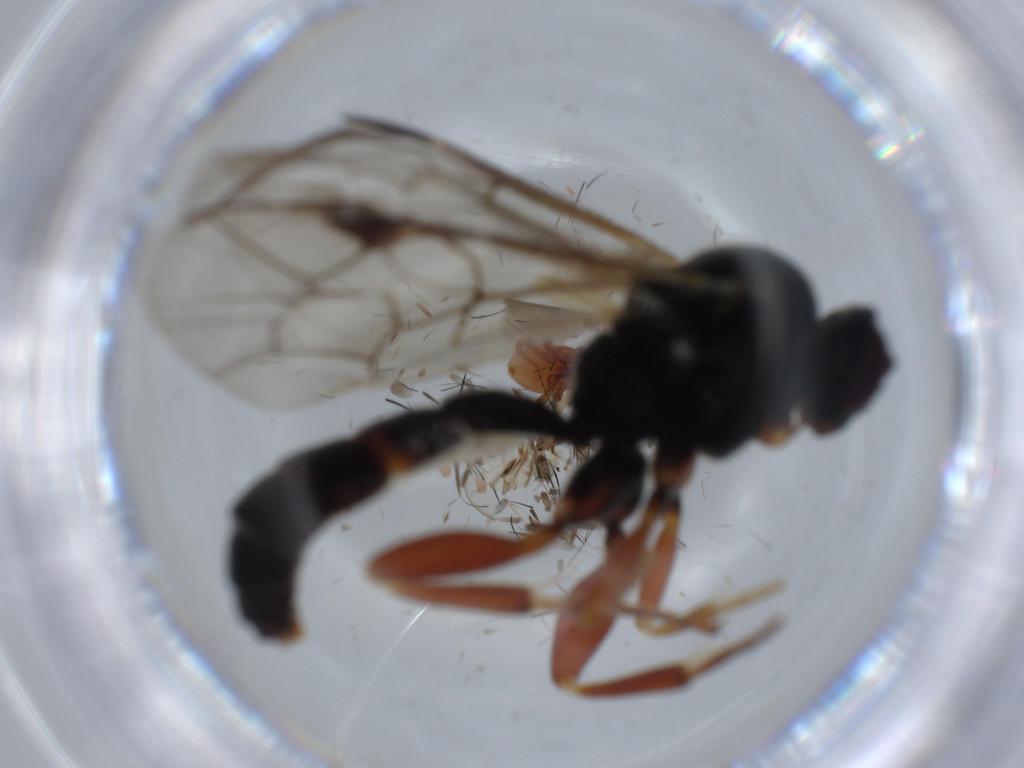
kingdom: Animalia
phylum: Arthropoda
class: Insecta
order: Hymenoptera
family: Ichneumonidae
